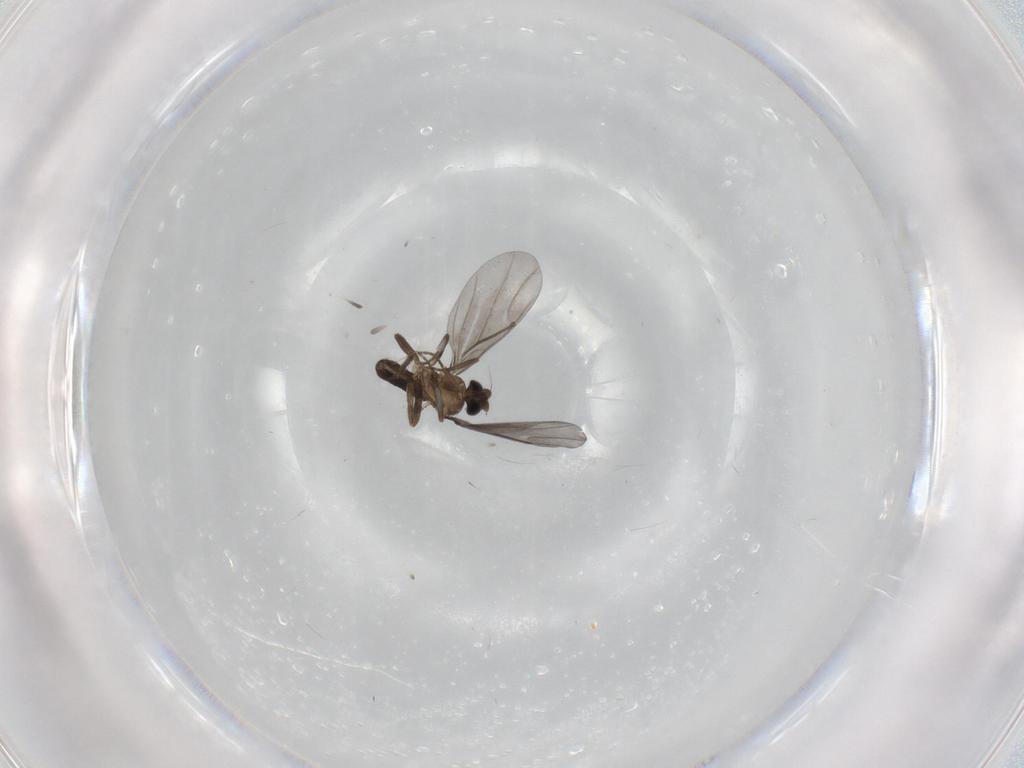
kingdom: Animalia
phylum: Arthropoda
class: Insecta
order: Diptera
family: Phoridae
